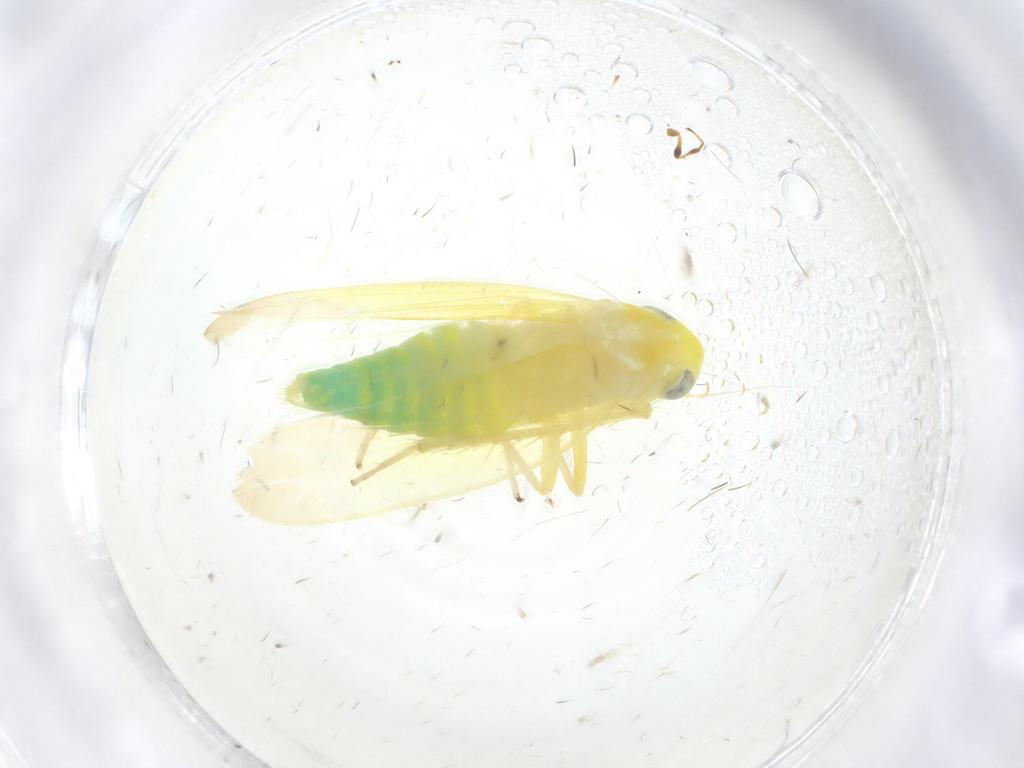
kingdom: Animalia
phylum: Arthropoda
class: Insecta
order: Hemiptera
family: Cicadellidae
